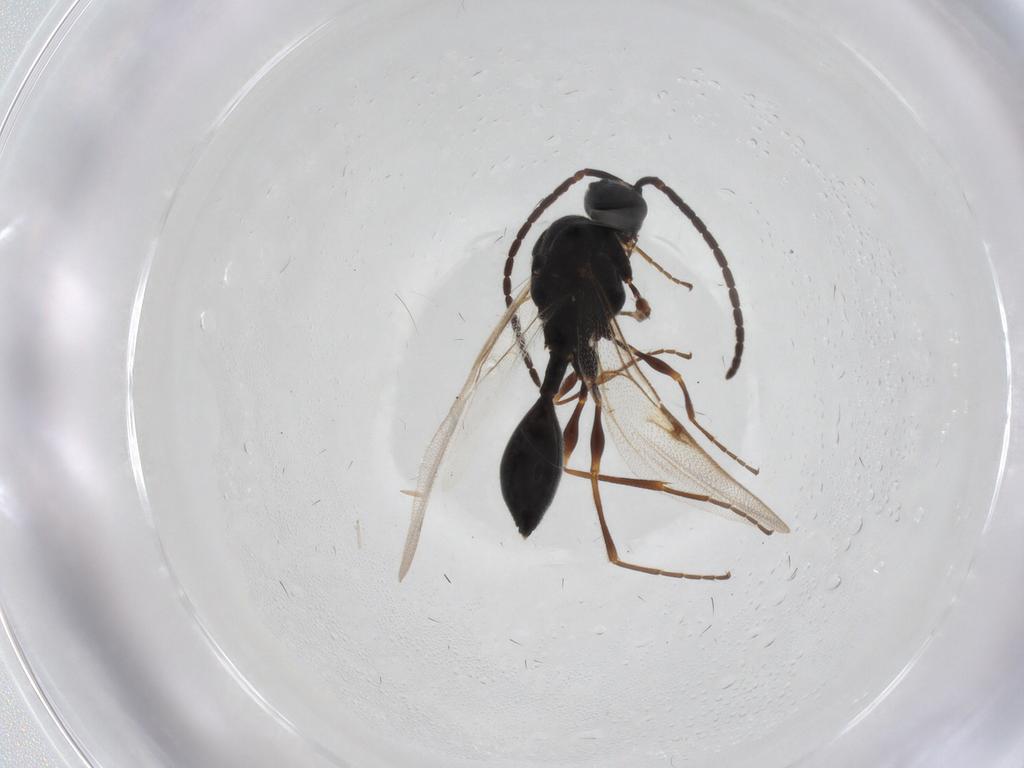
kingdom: Animalia
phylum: Arthropoda
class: Insecta
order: Hymenoptera
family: Diapriidae
